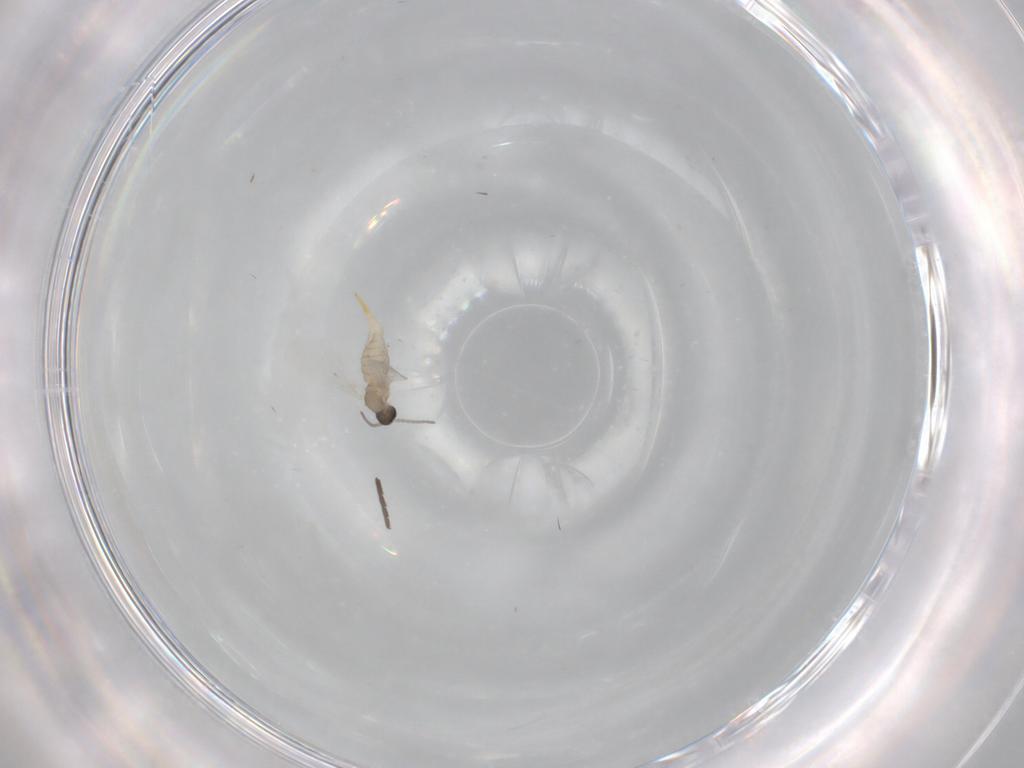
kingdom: Animalia
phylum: Arthropoda
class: Insecta
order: Diptera
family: Cecidomyiidae
